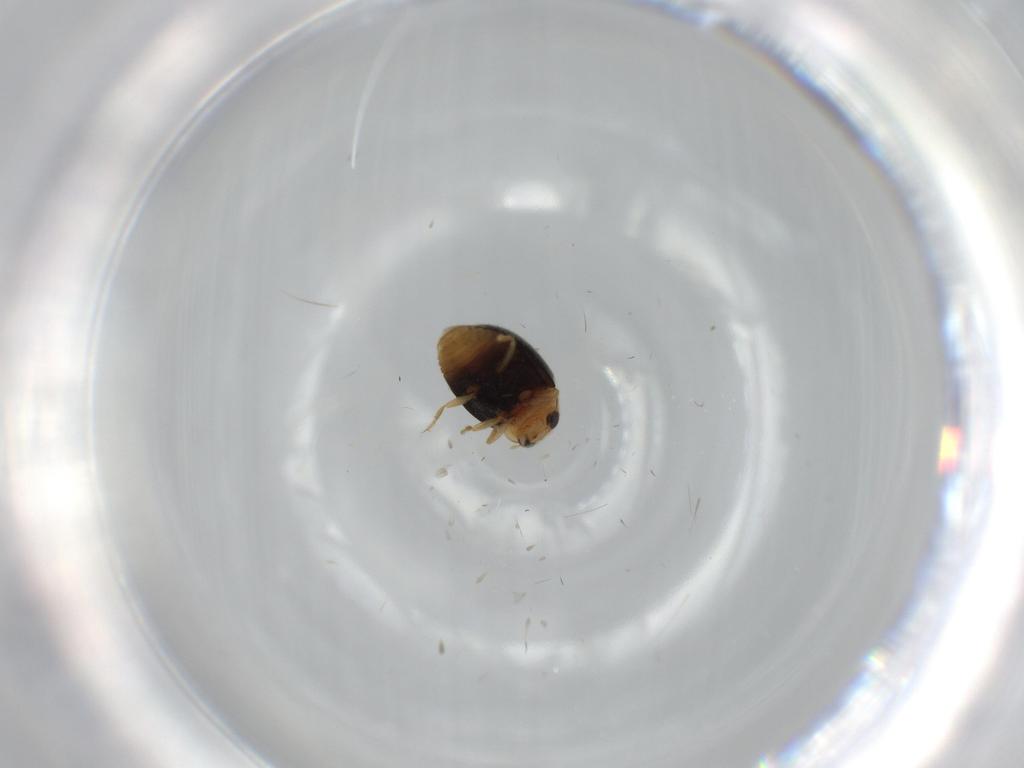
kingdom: Animalia
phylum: Arthropoda
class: Insecta
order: Coleoptera
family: Coccinellidae
